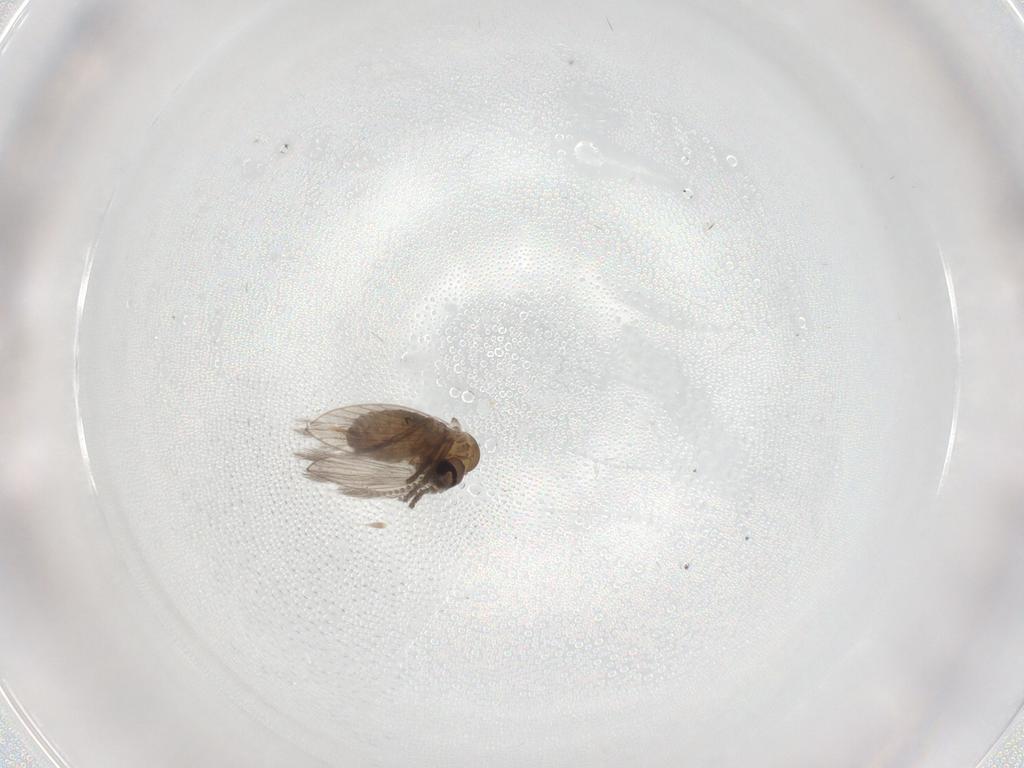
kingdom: Animalia
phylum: Arthropoda
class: Insecta
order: Diptera
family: Psychodidae
